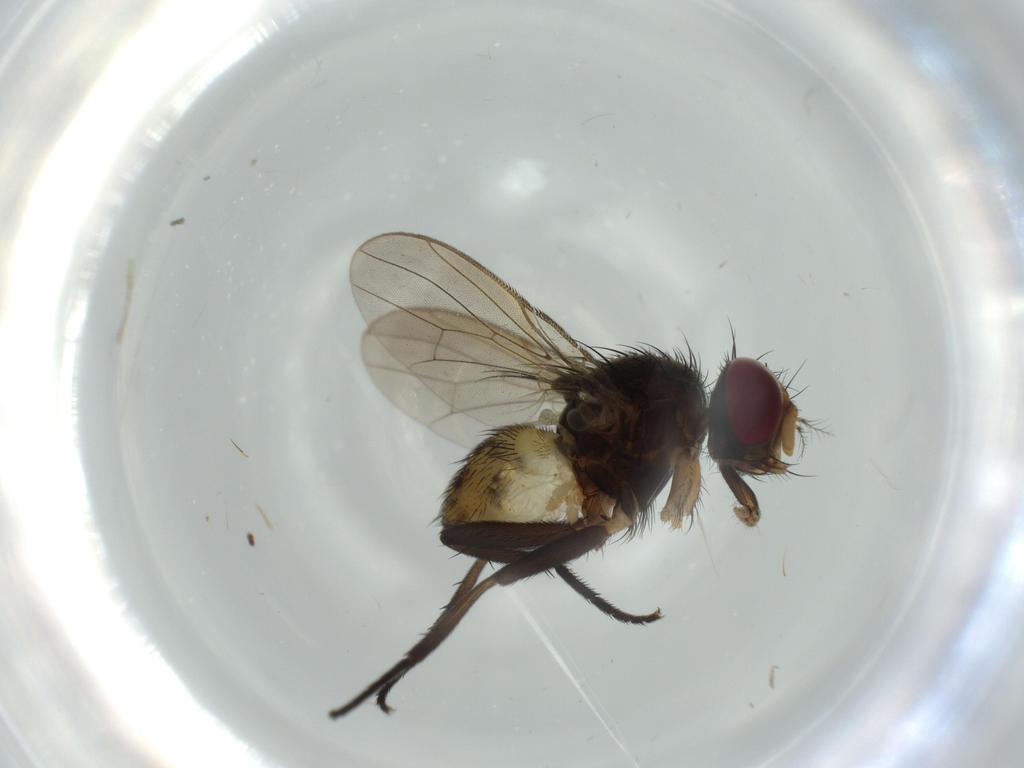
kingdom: Animalia
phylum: Arthropoda
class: Insecta
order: Diptera
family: Anthomyiidae
